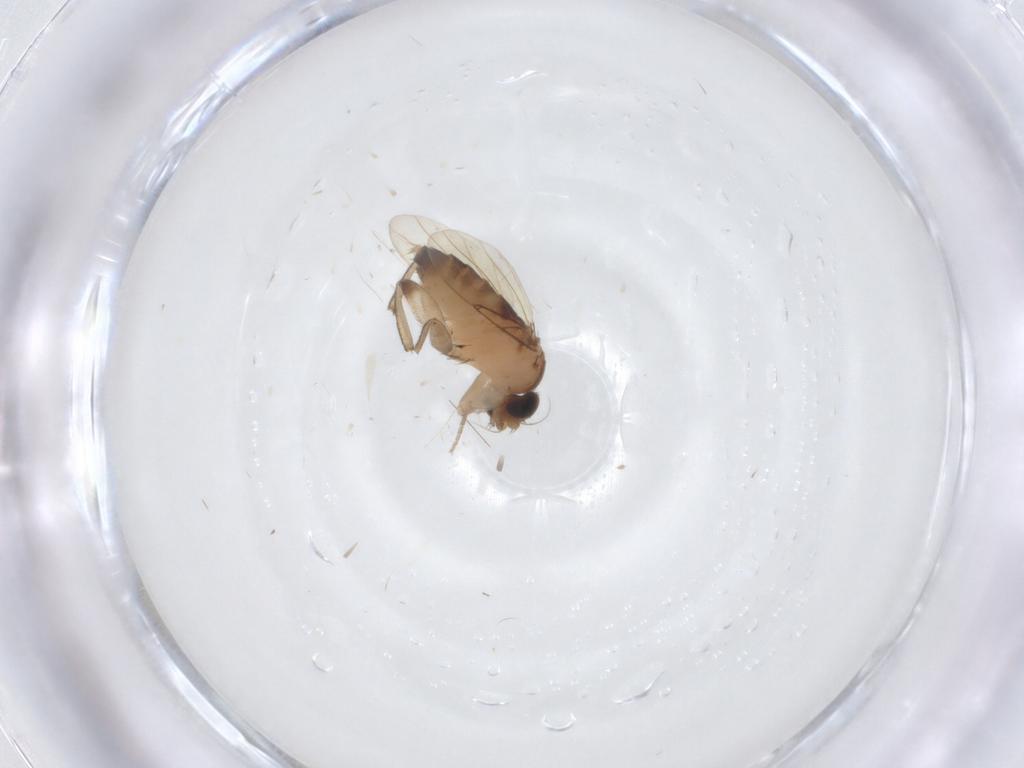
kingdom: Animalia
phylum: Arthropoda
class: Insecta
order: Diptera
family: Phoridae
